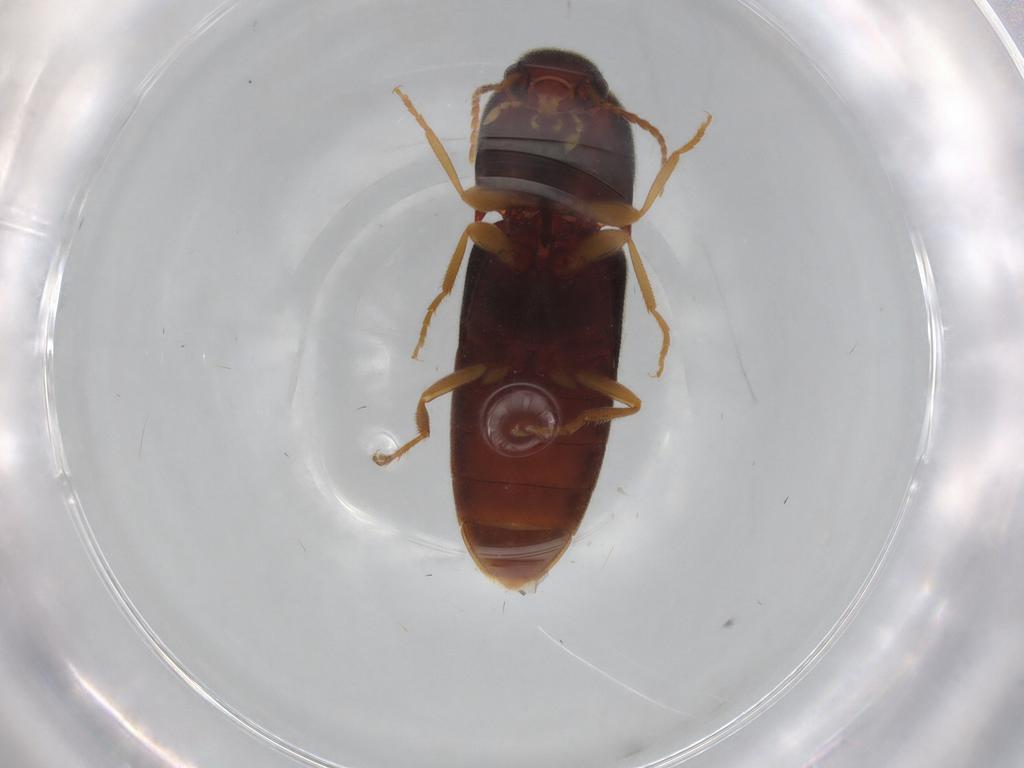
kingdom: Animalia
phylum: Arthropoda
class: Insecta
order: Coleoptera
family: Elateridae
